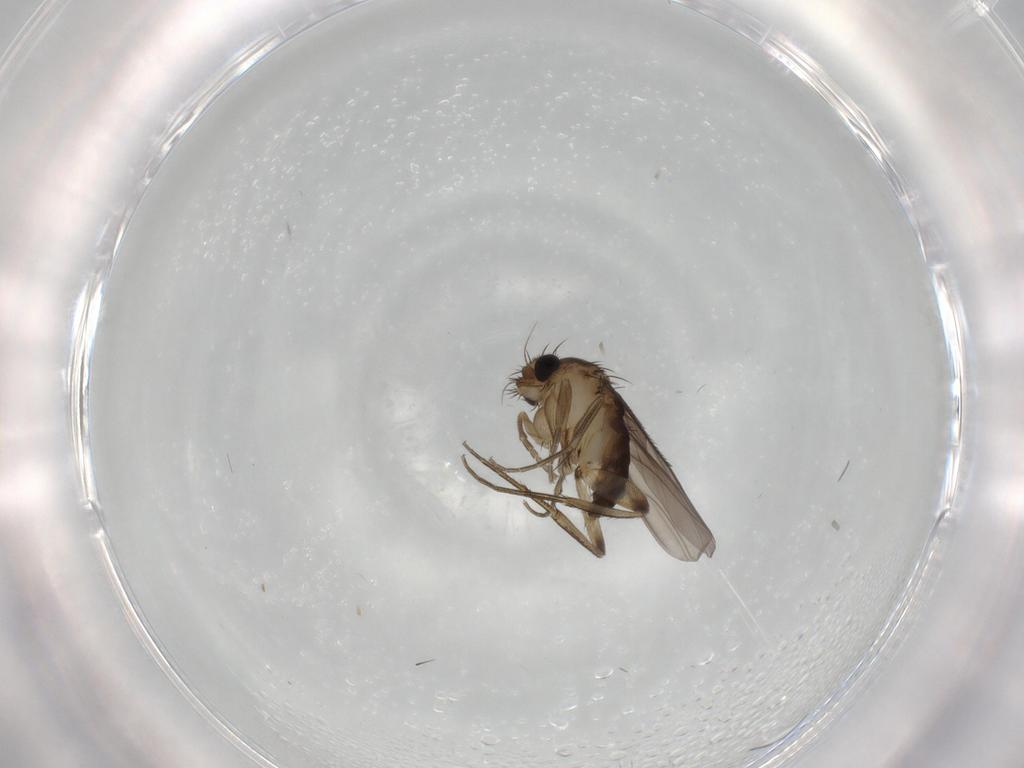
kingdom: Animalia
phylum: Arthropoda
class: Insecta
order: Diptera
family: Phoridae
